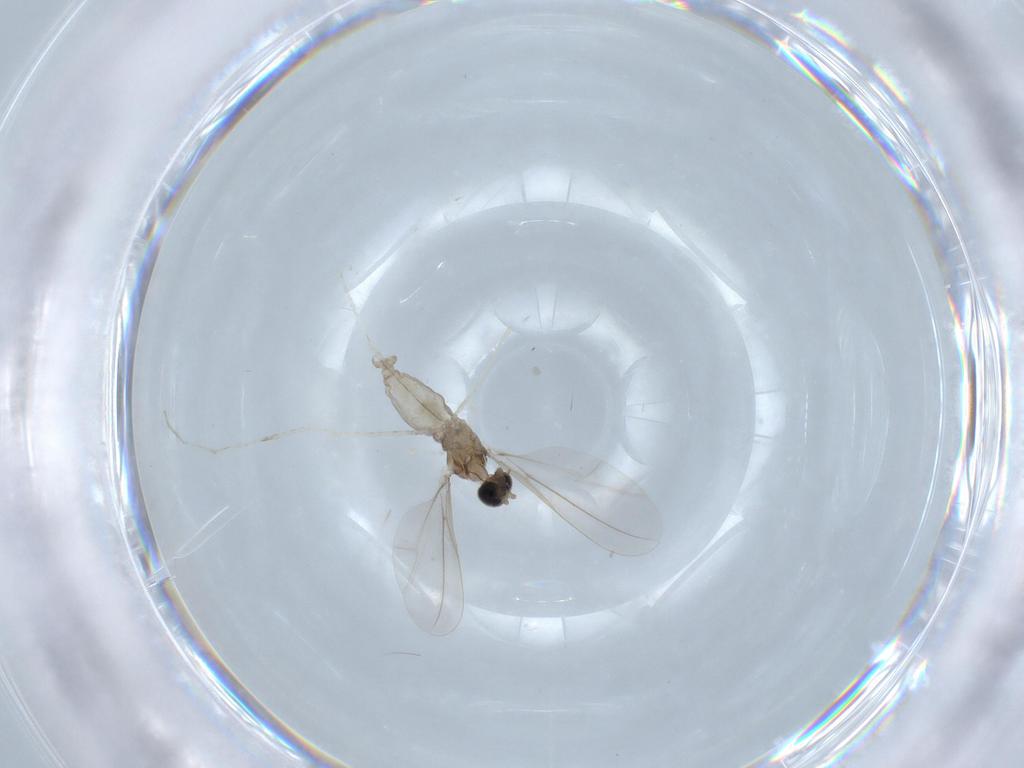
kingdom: Animalia
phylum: Arthropoda
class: Insecta
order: Diptera
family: Cecidomyiidae
